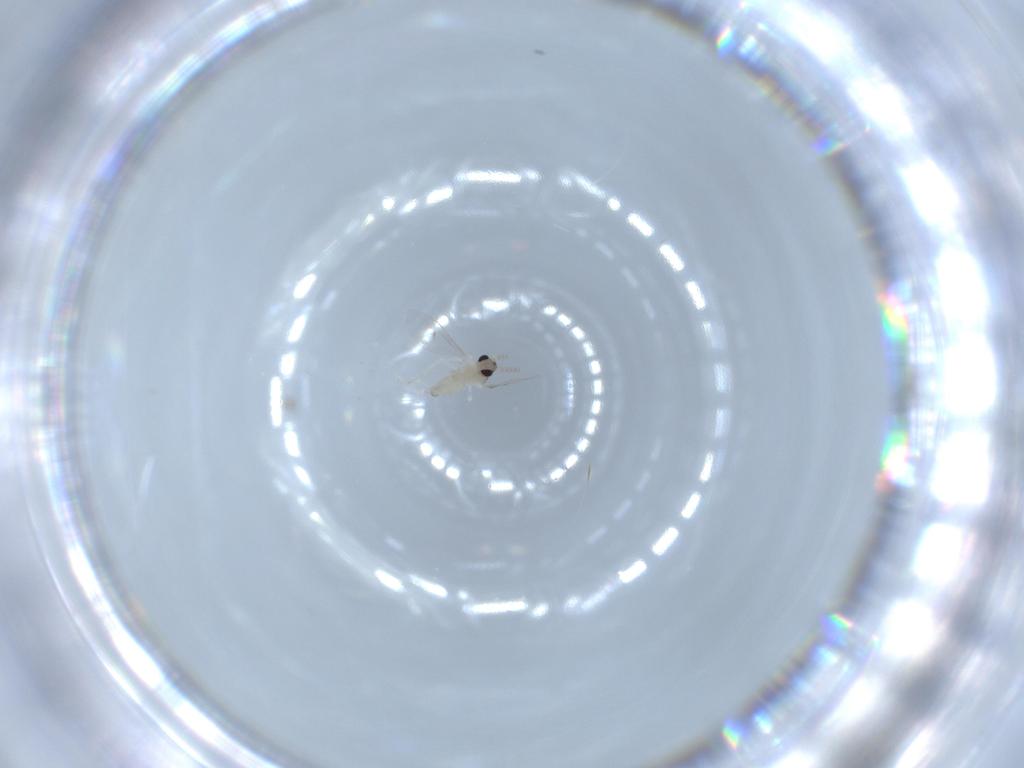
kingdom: Animalia
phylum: Arthropoda
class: Insecta
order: Diptera
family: Cecidomyiidae
